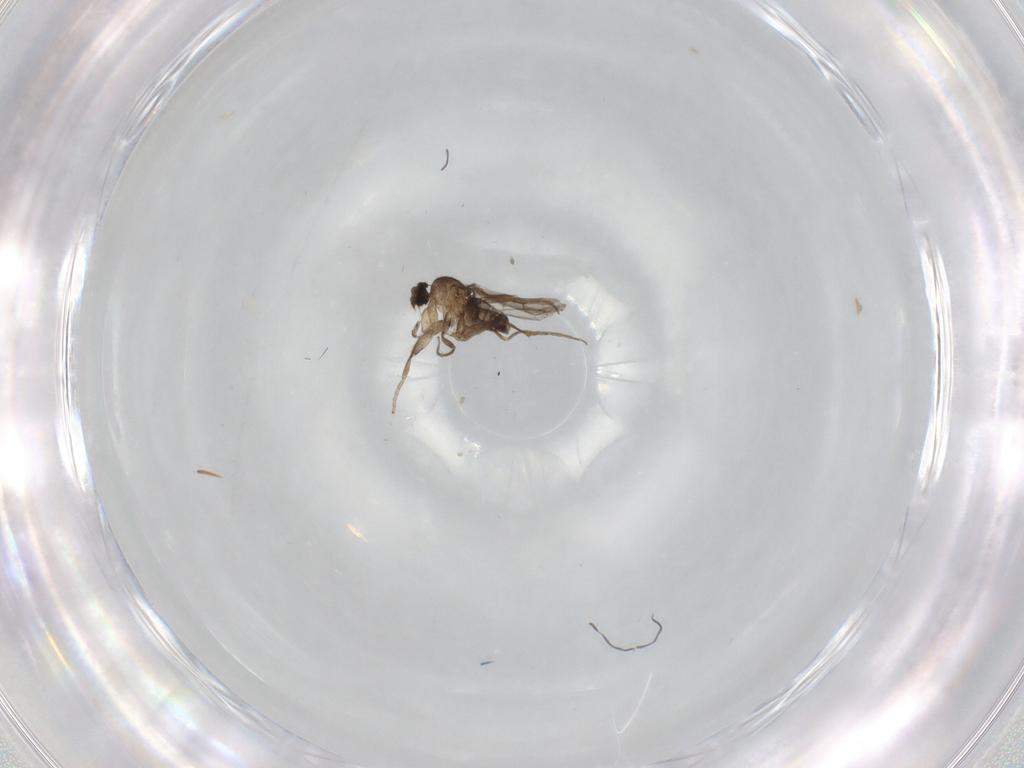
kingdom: Animalia
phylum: Arthropoda
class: Insecta
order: Diptera
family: Phoridae
